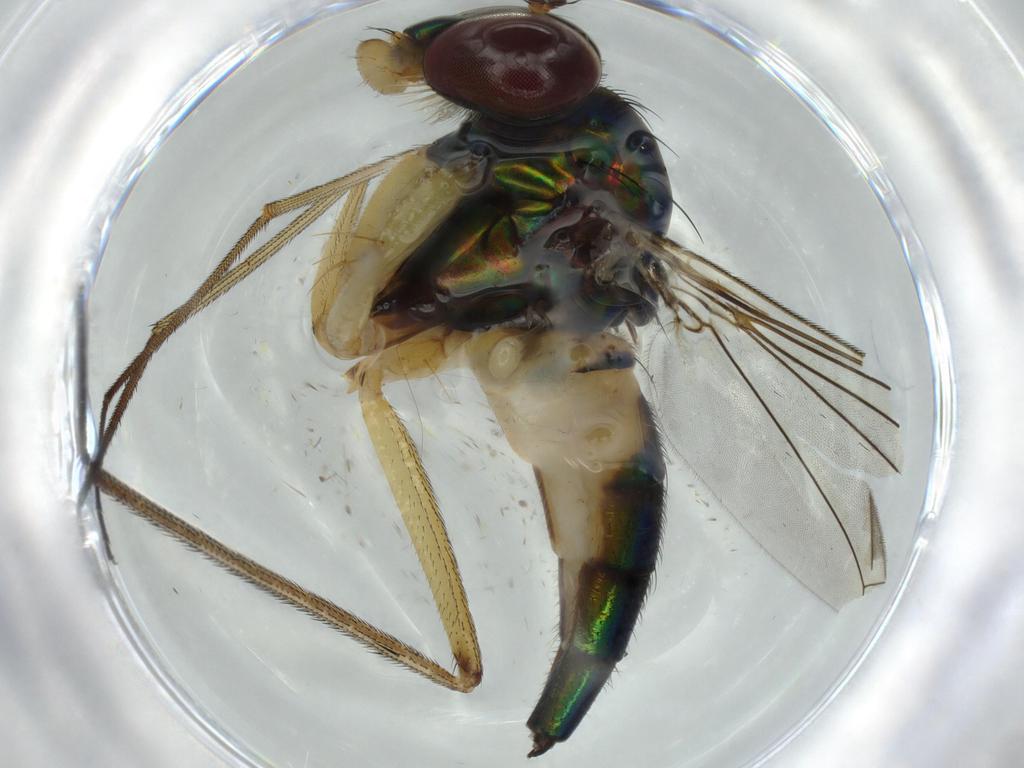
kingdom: Animalia
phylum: Arthropoda
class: Insecta
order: Diptera
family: Dolichopodidae
